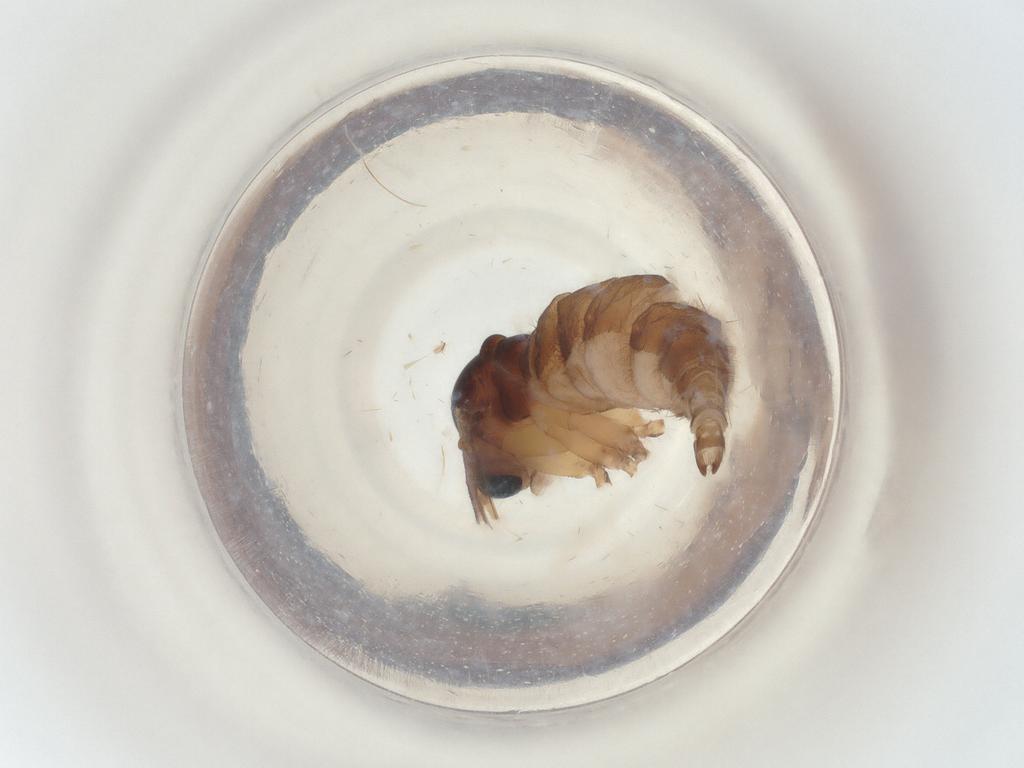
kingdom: Animalia
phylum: Arthropoda
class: Insecta
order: Diptera
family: Sciaridae
